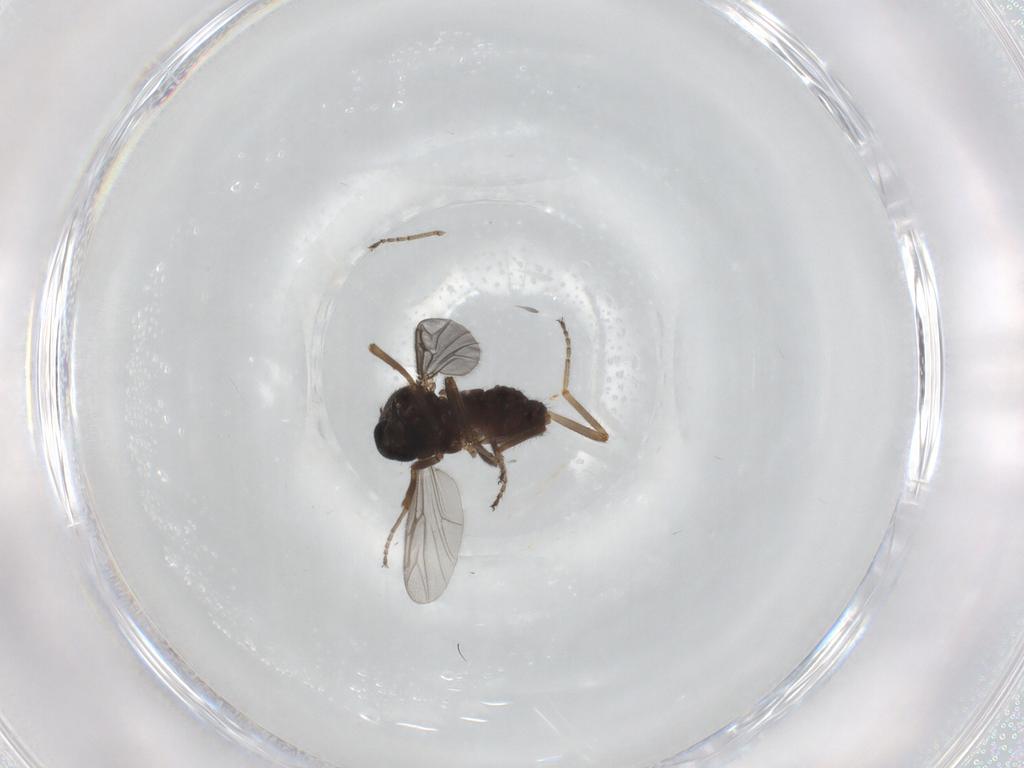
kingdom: Animalia
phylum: Arthropoda
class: Insecta
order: Diptera
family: Ceratopogonidae
